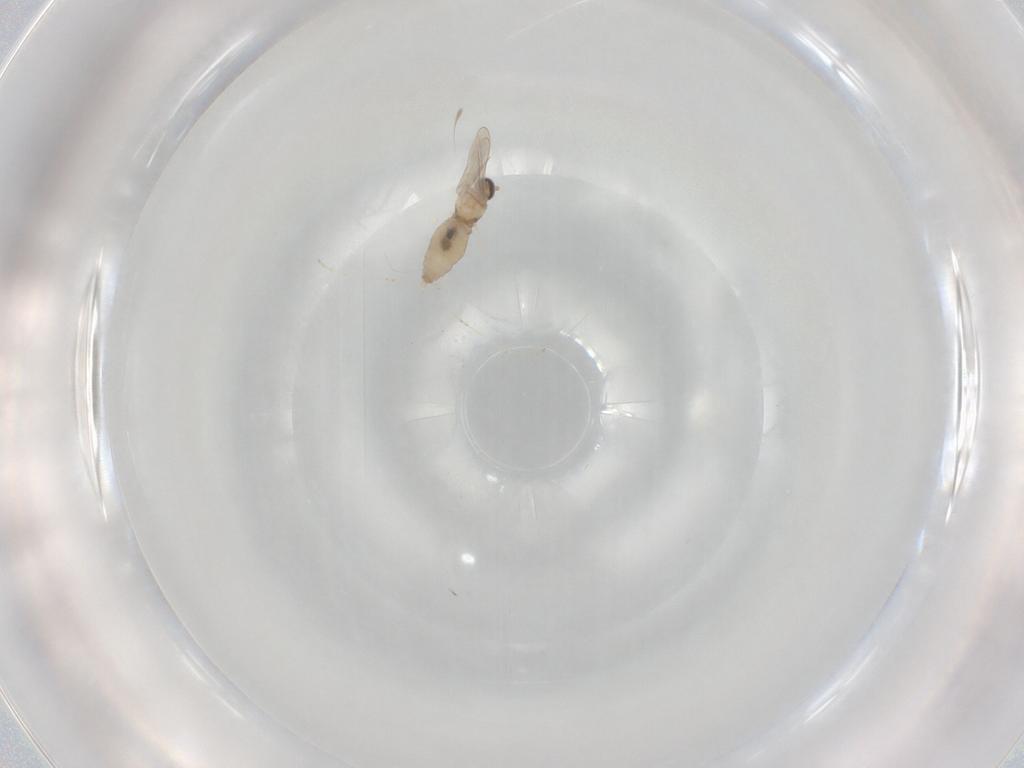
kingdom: Animalia
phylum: Arthropoda
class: Insecta
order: Diptera
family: Cecidomyiidae
